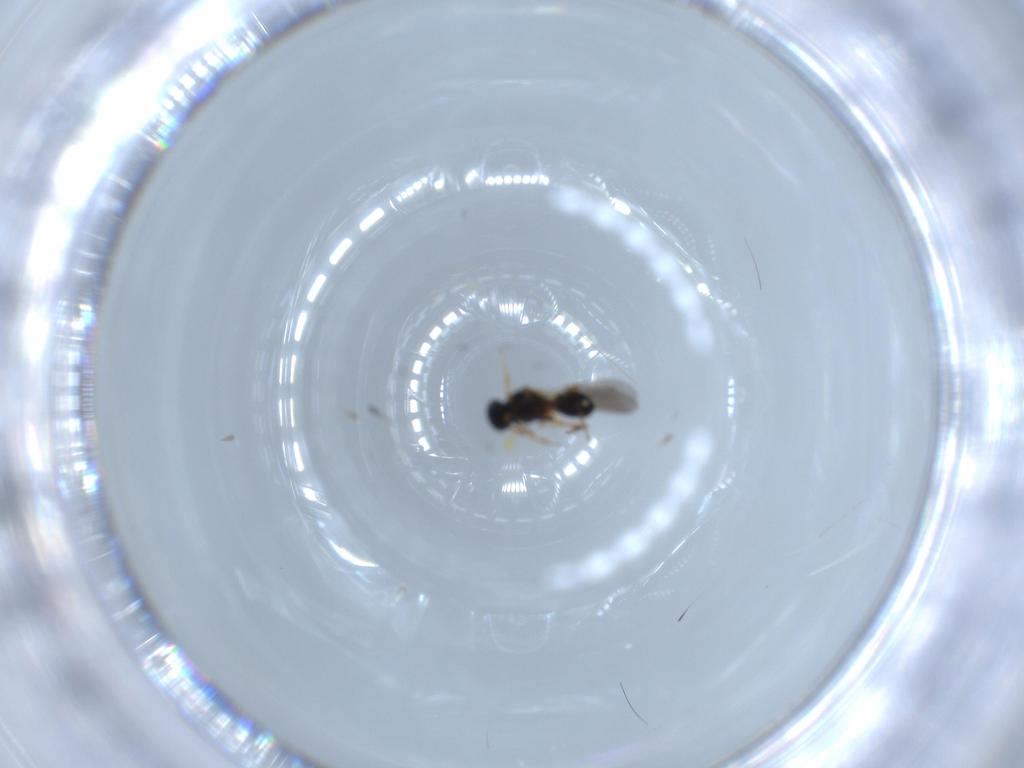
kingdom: Animalia
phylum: Arthropoda
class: Insecta
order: Hymenoptera
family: Platygastridae
